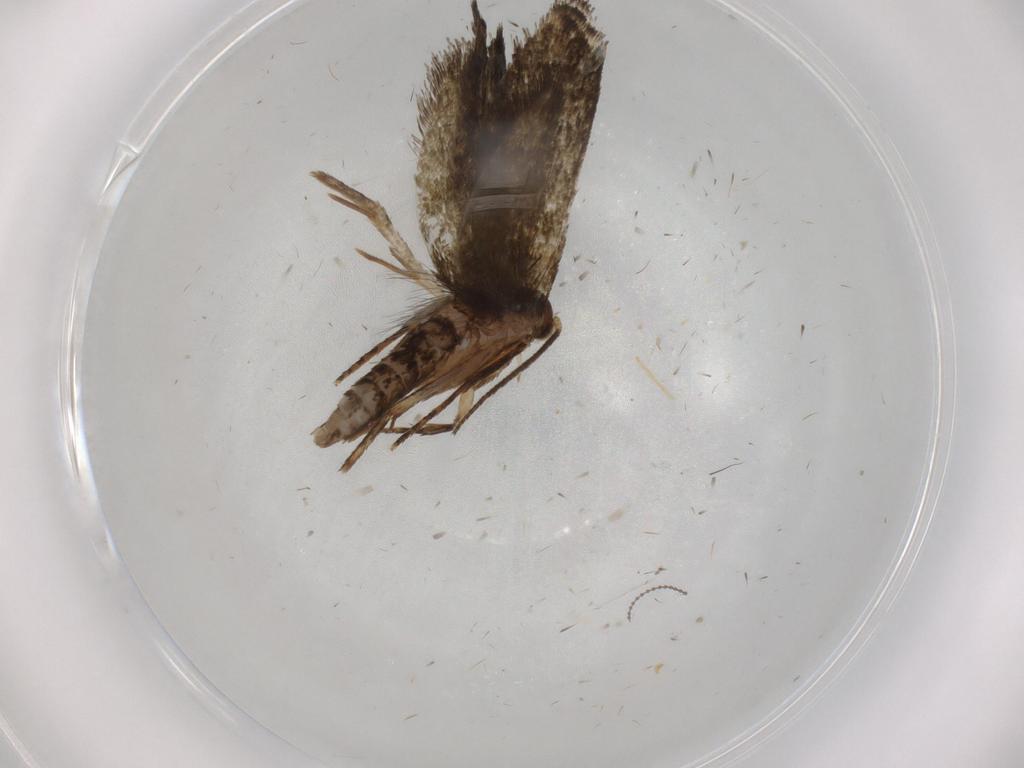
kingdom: Animalia
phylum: Arthropoda
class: Insecta
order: Lepidoptera
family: Tineidae
